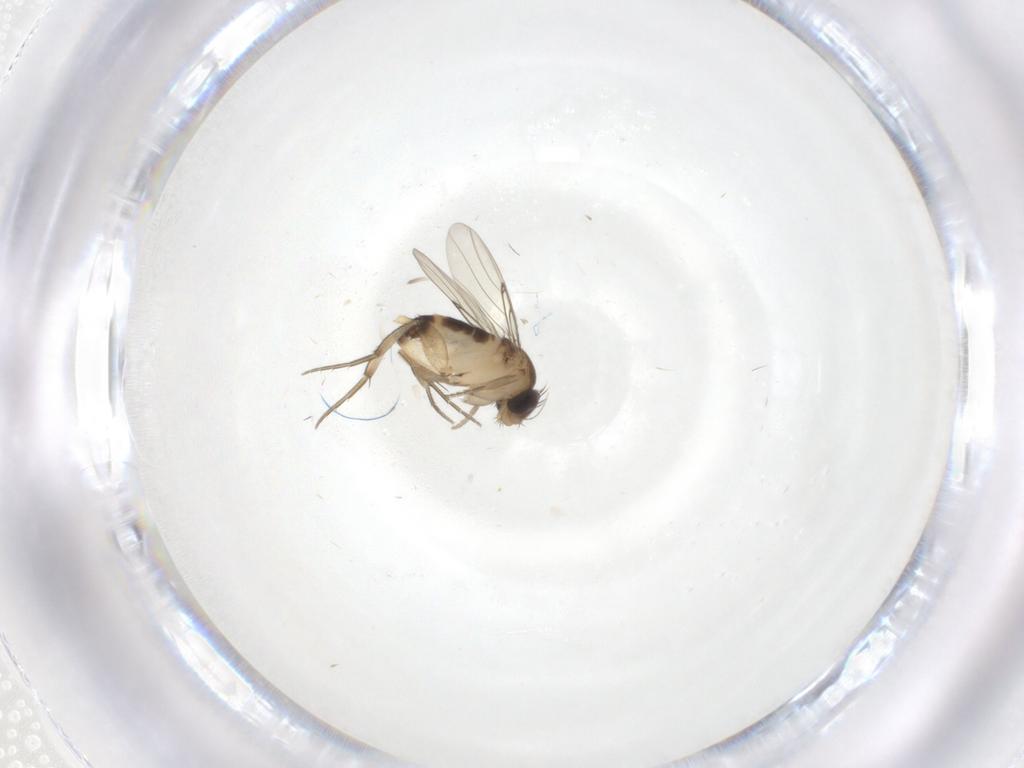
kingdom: Animalia
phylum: Arthropoda
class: Insecta
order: Diptera
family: Phoridae
